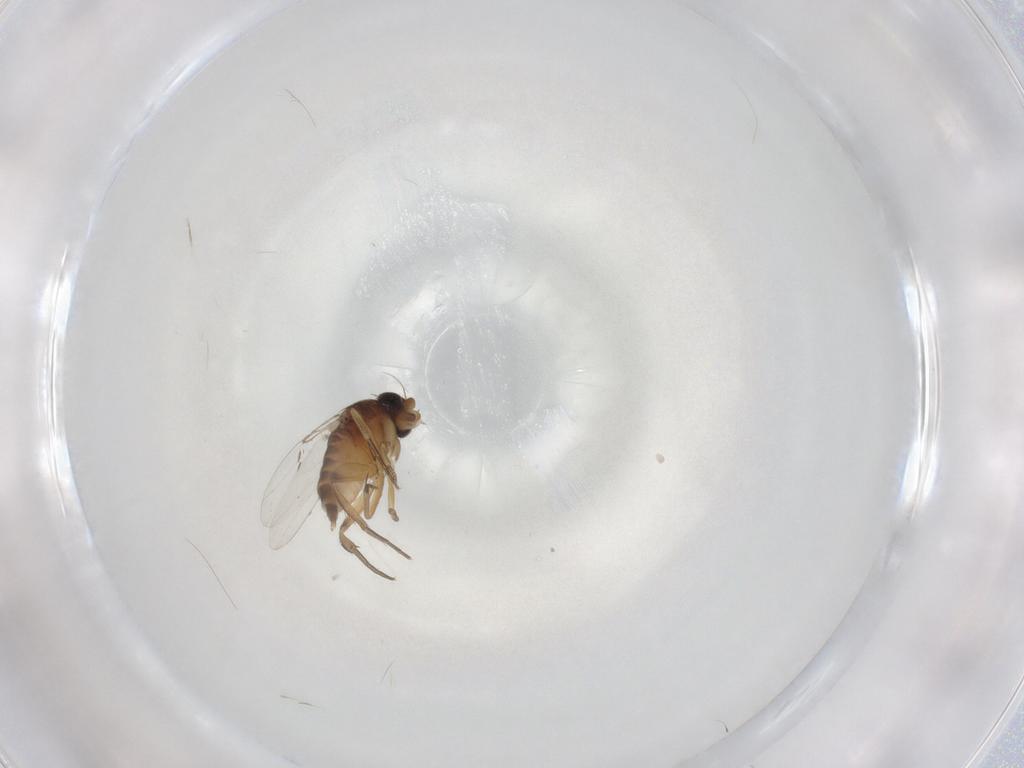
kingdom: Animalia
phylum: Arthropoda
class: Insecta
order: Diptera
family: Phoridae
